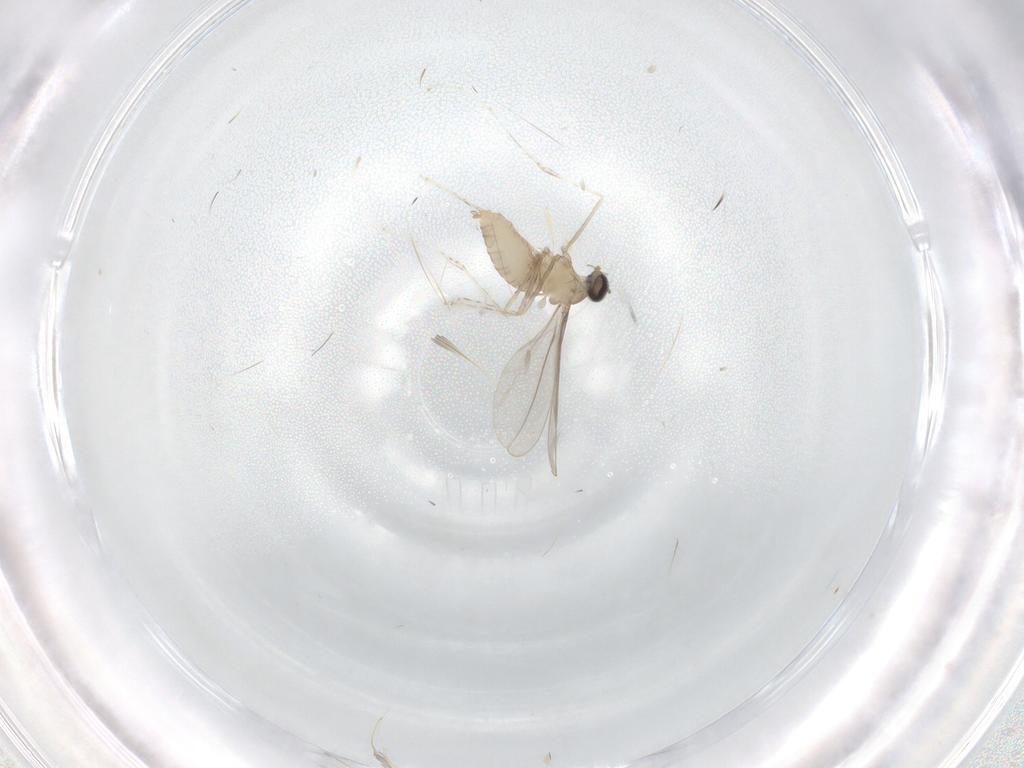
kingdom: Animalia
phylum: Arthropoda
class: Insecta
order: Diptera
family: Cecidomyiidae
